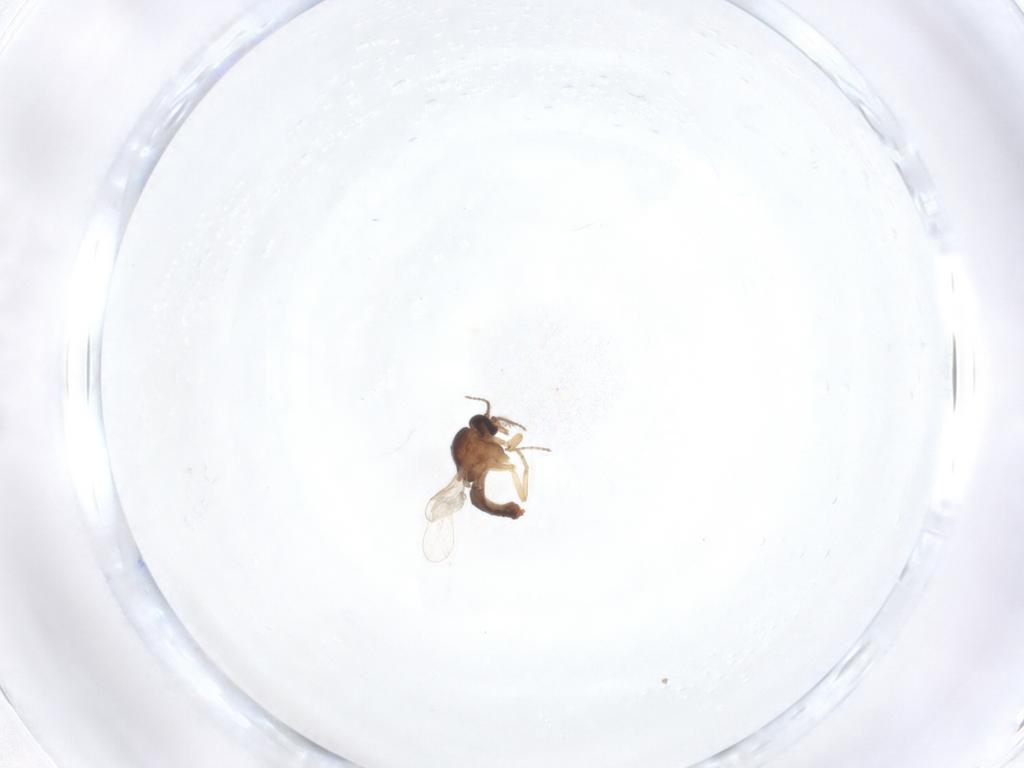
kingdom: Animalia
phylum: Arthropoda
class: Insecta
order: Diptera
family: Ceratopogonidae
